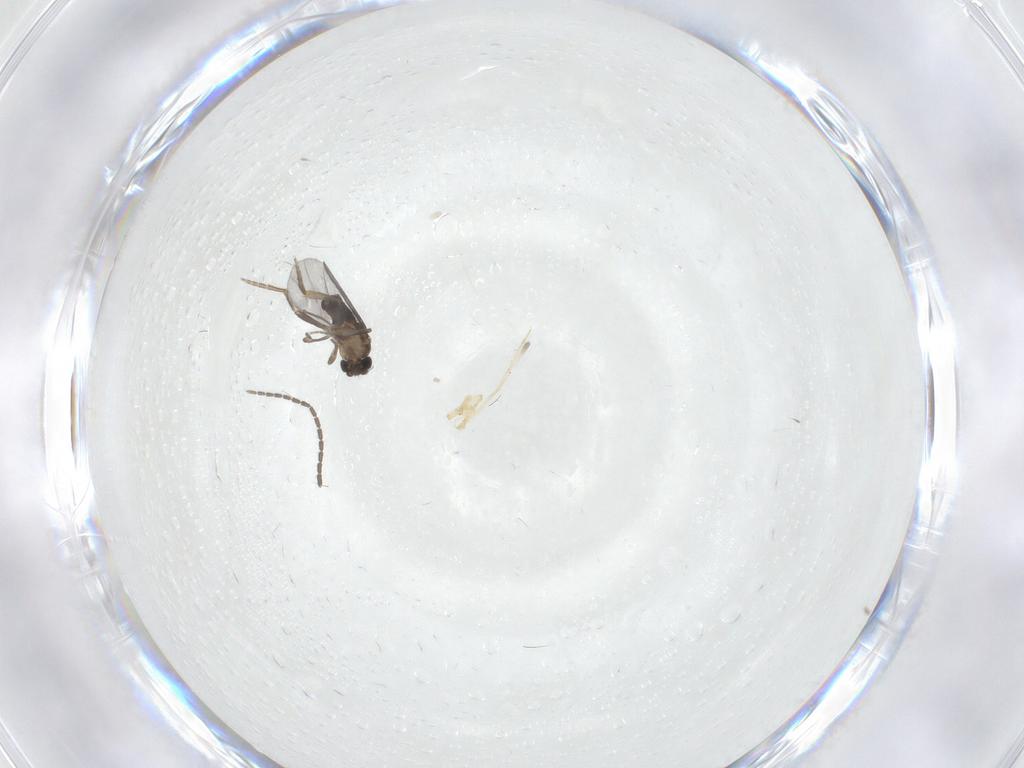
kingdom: Animalia
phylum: Arthropoda
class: Insecta
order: Diptera
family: Sciaridae
